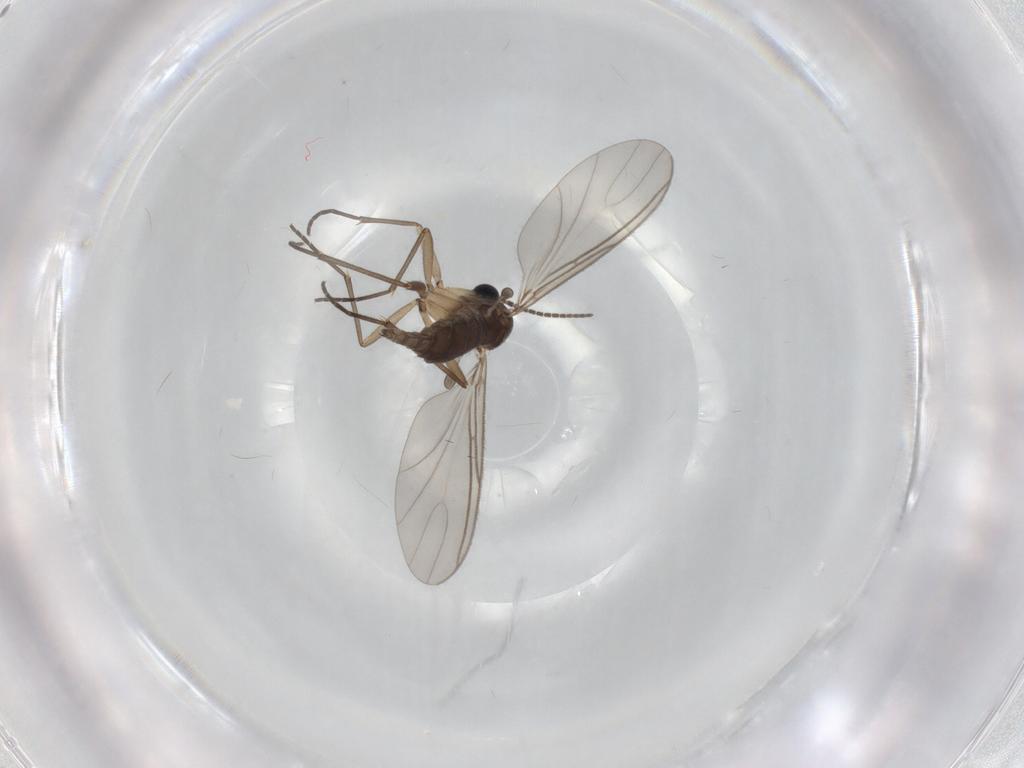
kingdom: Animalia
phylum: Arthropoda
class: Insecta
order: Diptera
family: Sciaridae
